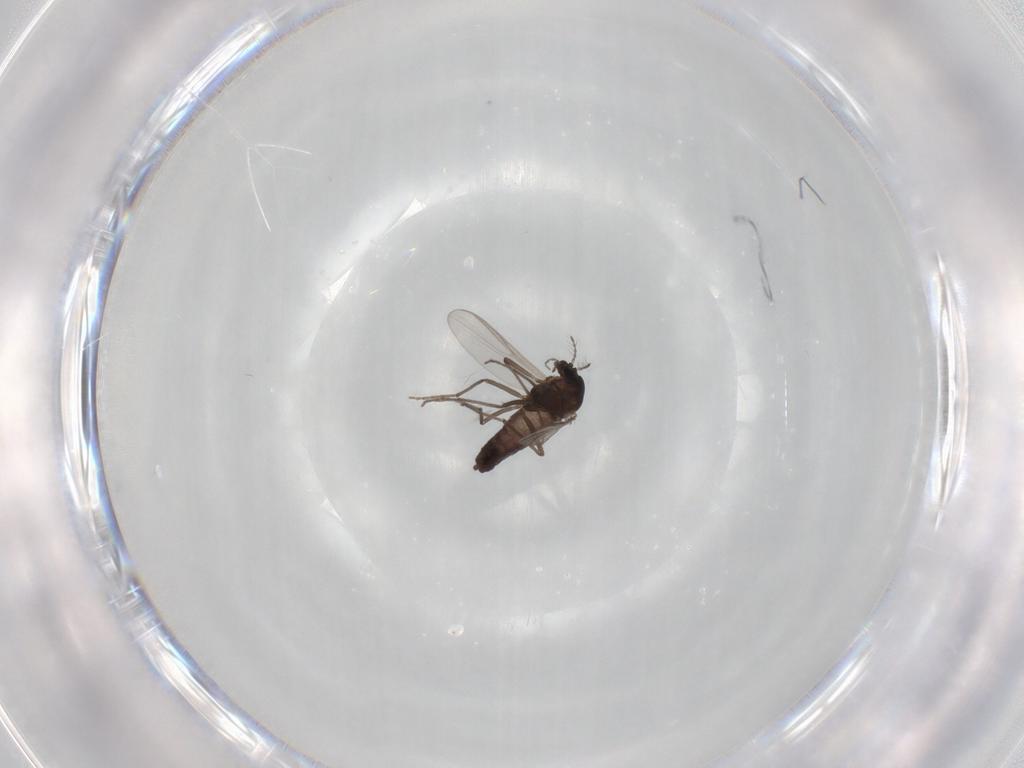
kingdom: Animalia
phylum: Arthropoda
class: Insecta
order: Diptera
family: Chironomidae
